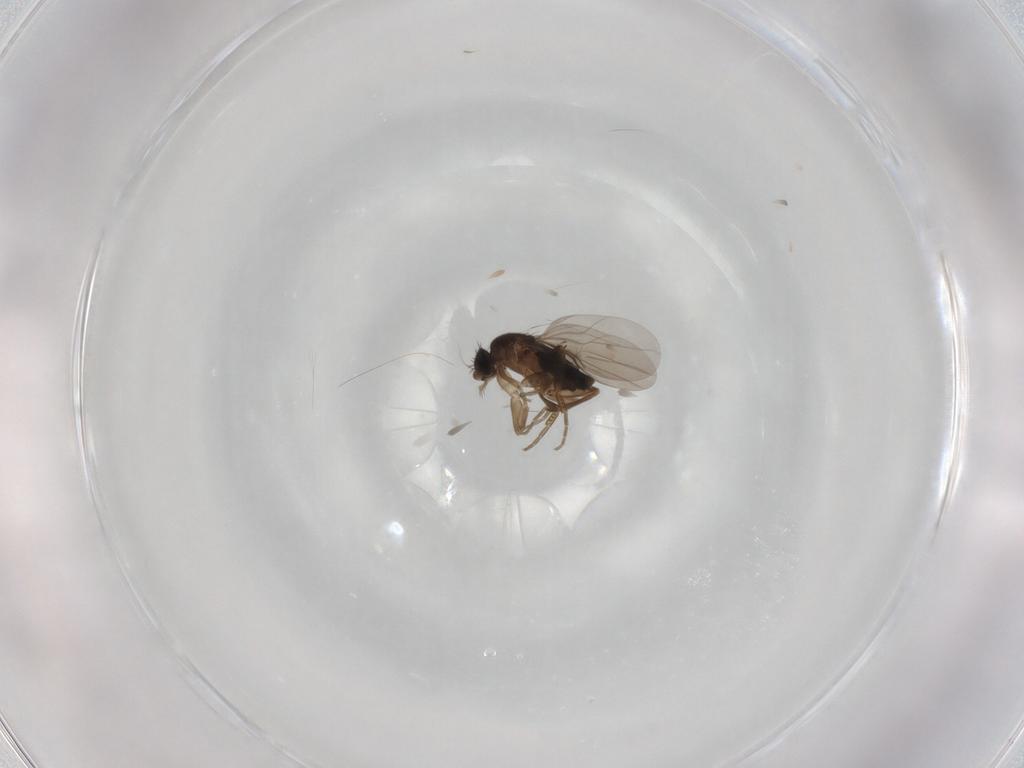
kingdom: Animalia
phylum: Arthropoda
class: Insecta
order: Diptera
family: Phoridae
